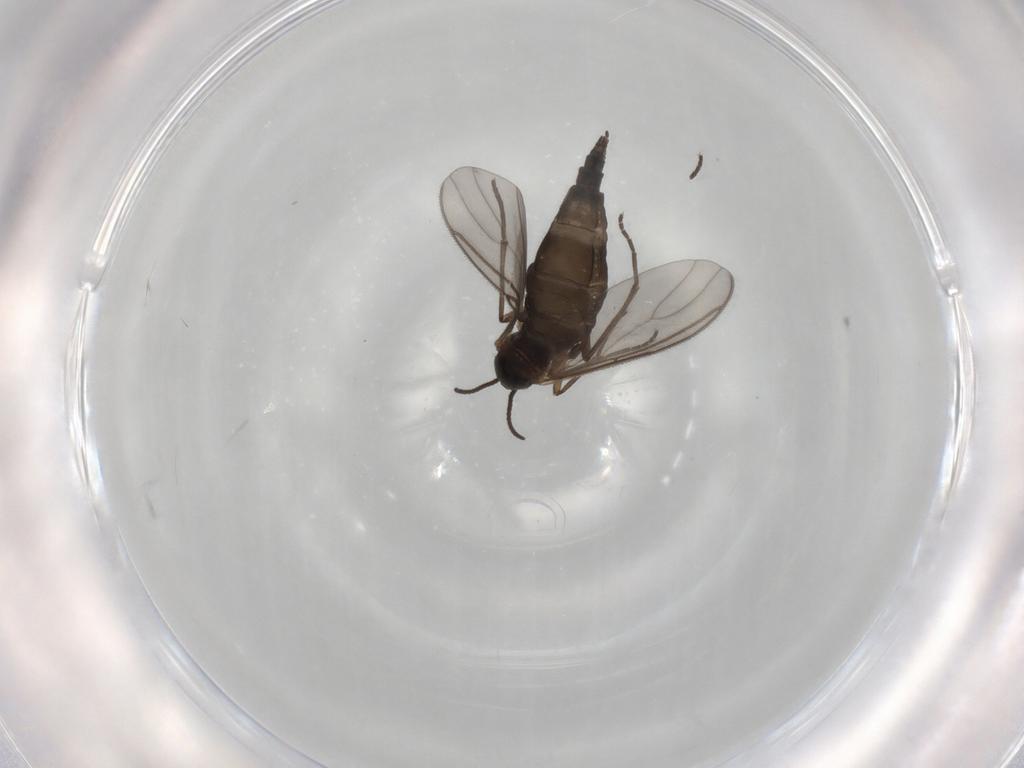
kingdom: Animalia
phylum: Arthropoda
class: Insecta
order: Diptera
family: Sciaridae
